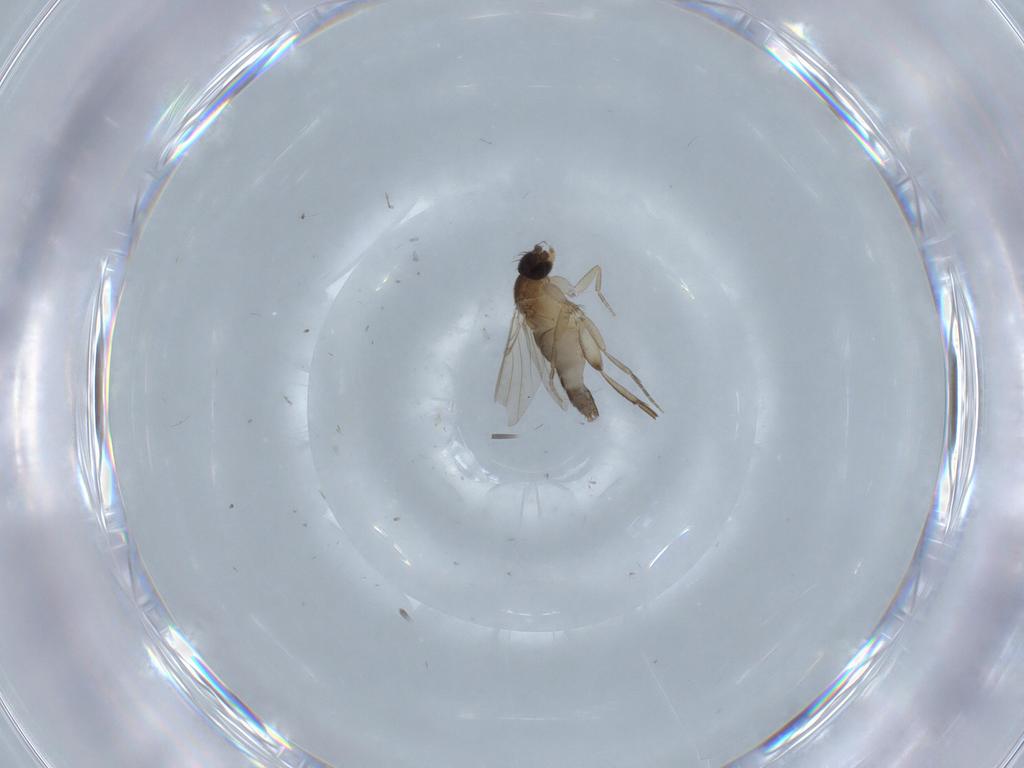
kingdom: Animalia
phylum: Arthropoda
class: Insecta
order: Diptera
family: Phoridae
